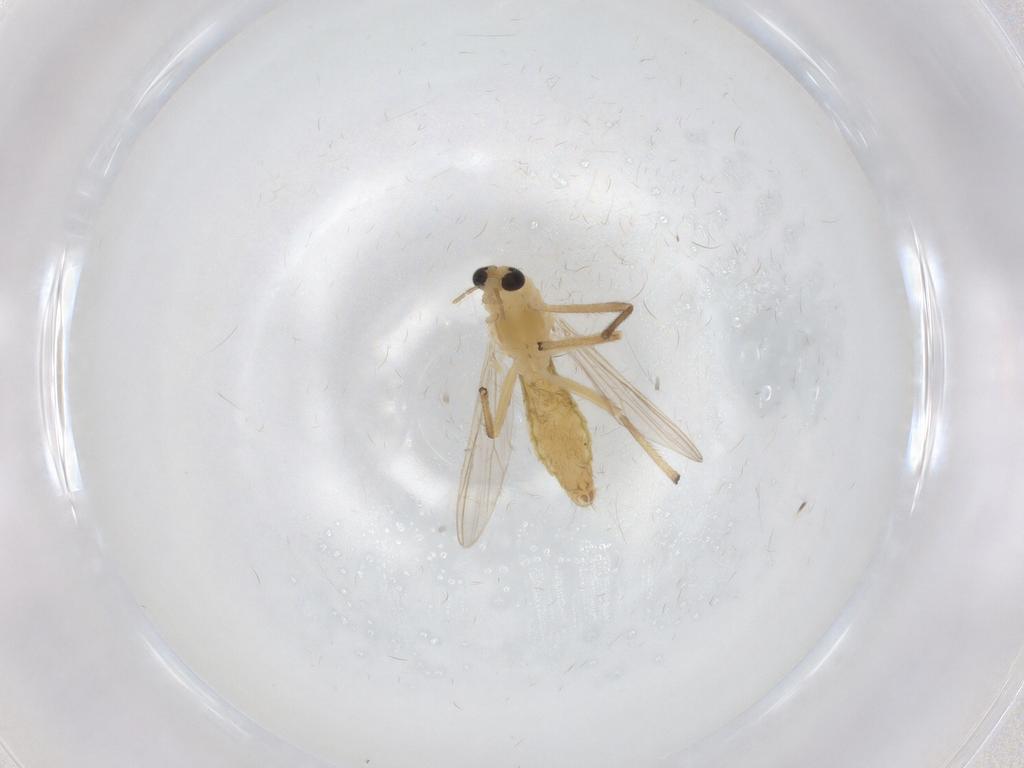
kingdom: Animalia
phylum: Arthropoda
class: Insecta
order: Diptera
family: Chironomidae
